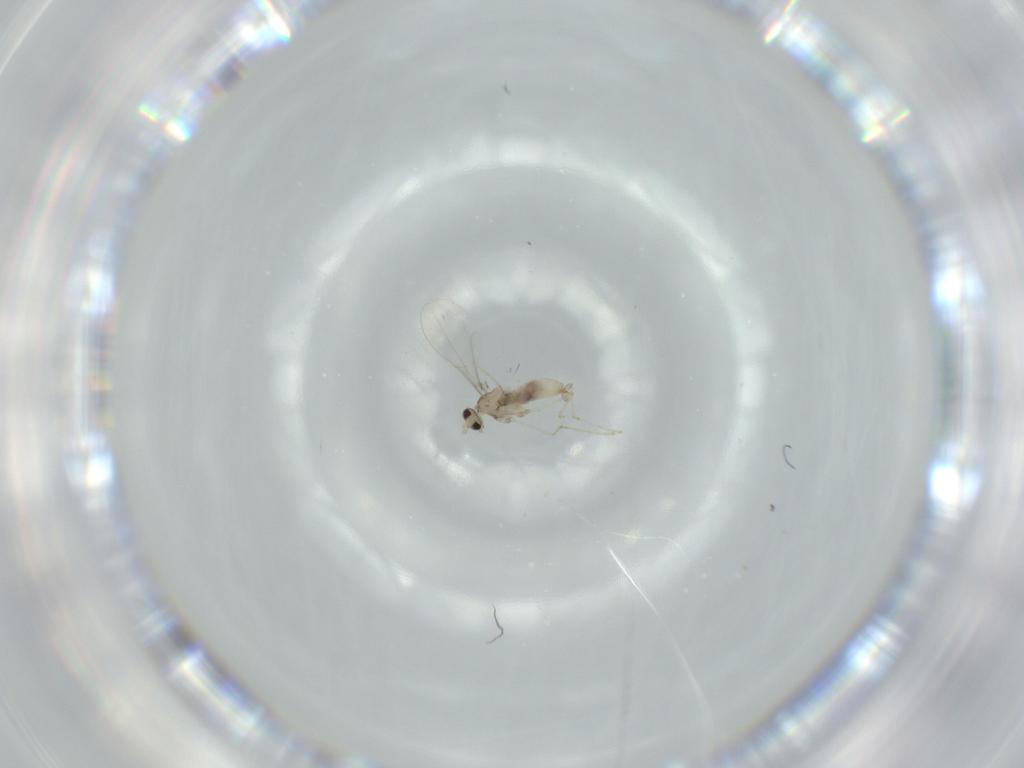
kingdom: Animalia
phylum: Arthropoda
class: Insecta
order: Diptera
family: Cecidomyiidae
